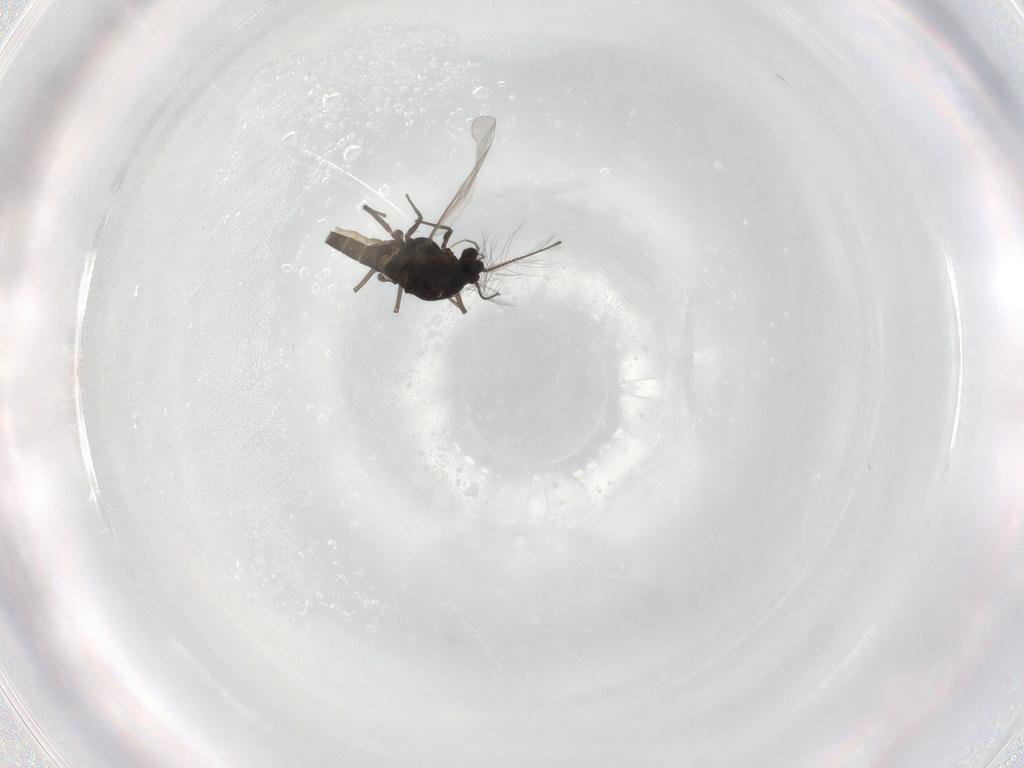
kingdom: Animalia
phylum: Arthropoda
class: Insecta
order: Diptera
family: Chironomidae
